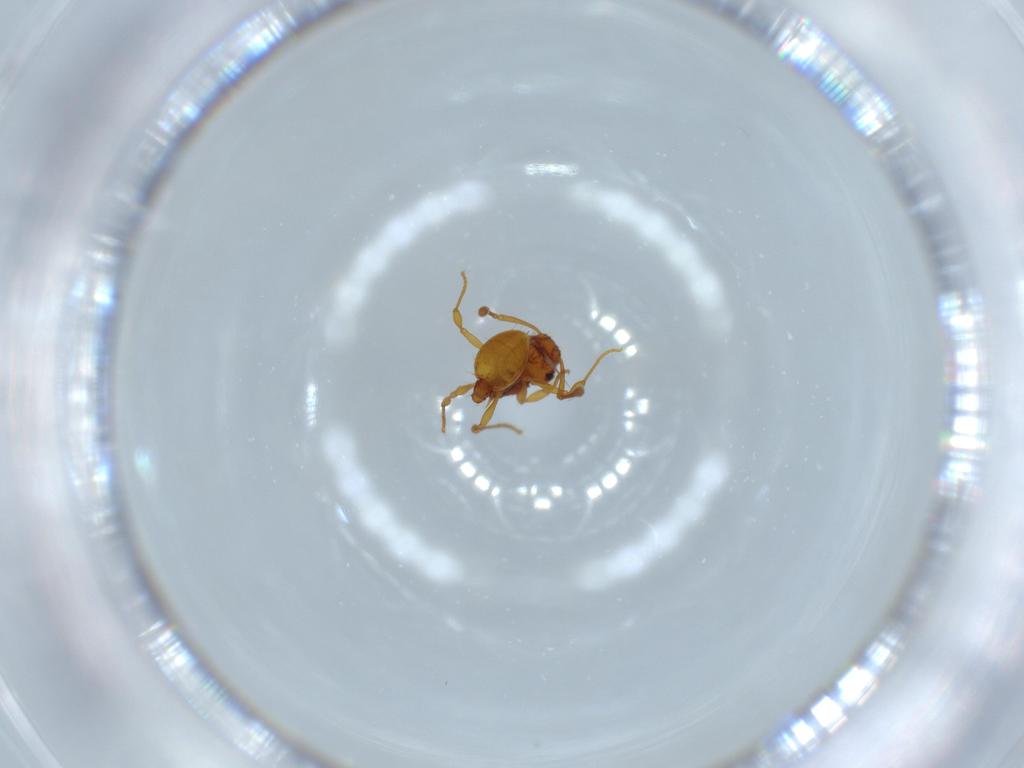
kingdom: Animalia
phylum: Arthropoda
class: Insecta
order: Hymenoptera
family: Formicidae
